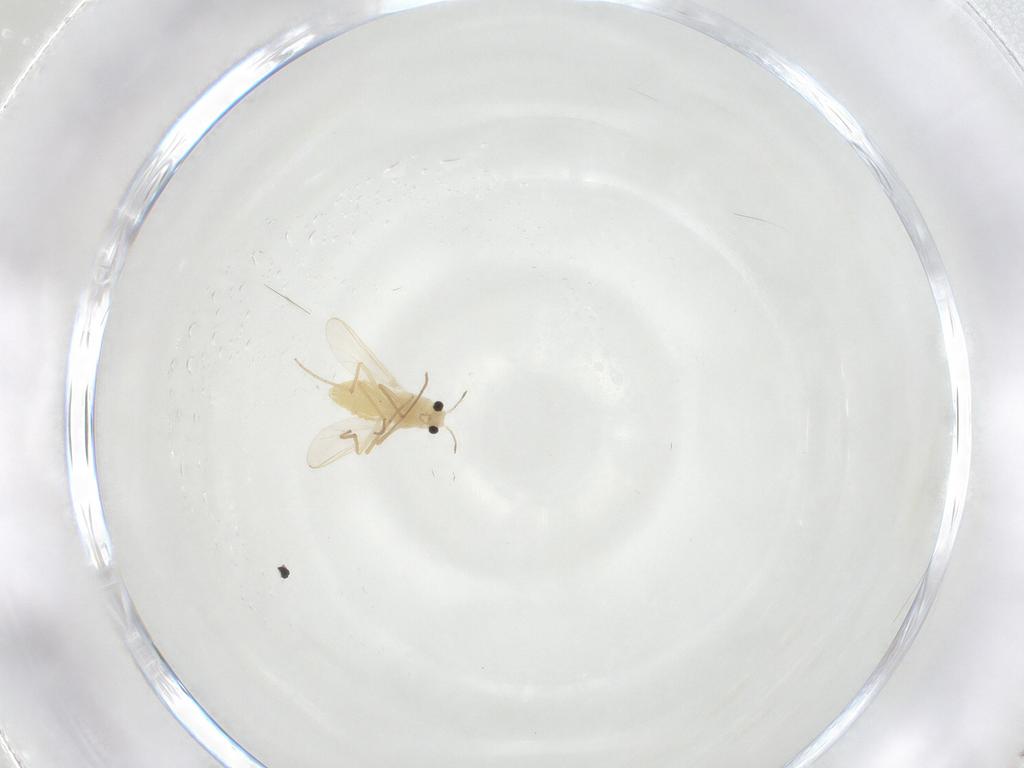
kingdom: Animalia
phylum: Arthropoda
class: Insecta
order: Diptera
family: Chironomidae
